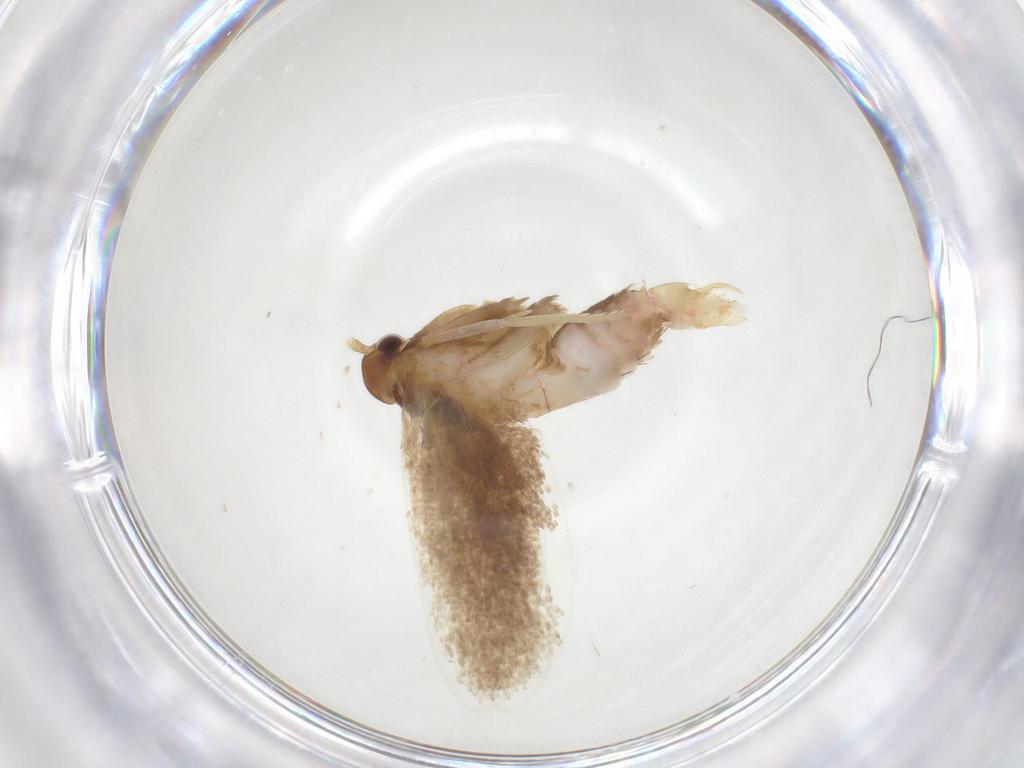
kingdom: Animalia
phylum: Arthropoda
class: Insecta
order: Lepidoptera
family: Lecithoceridae
